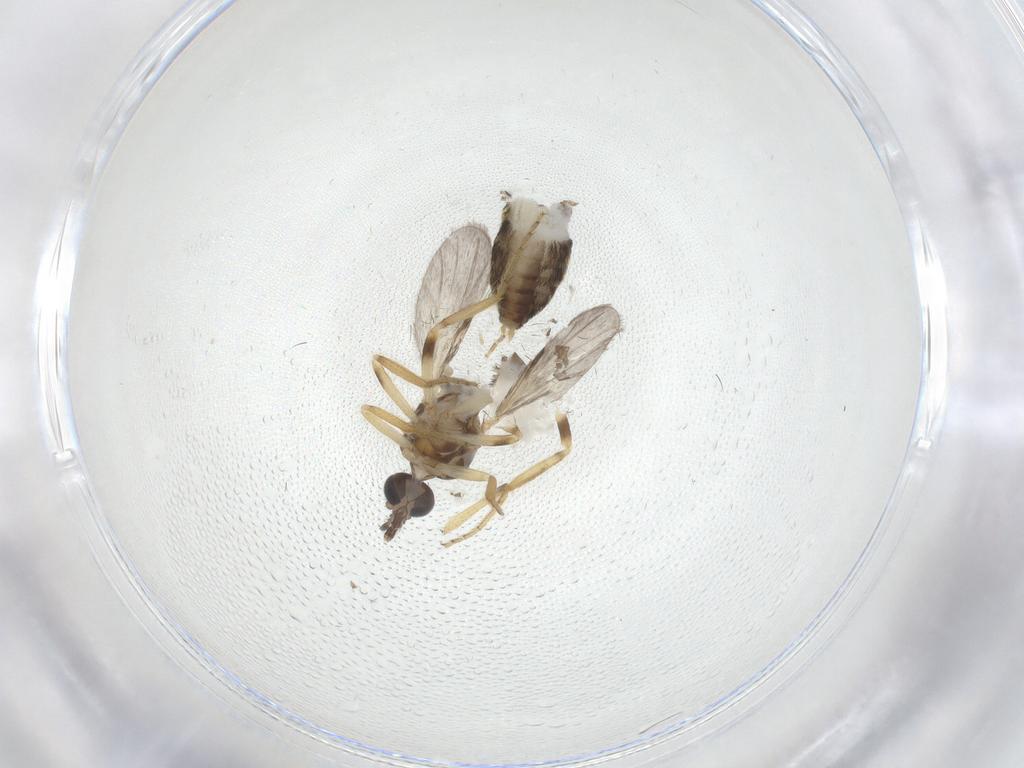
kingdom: Animalia
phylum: Arthropoda
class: Insecta
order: Diptera
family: Ceratopogonidae
